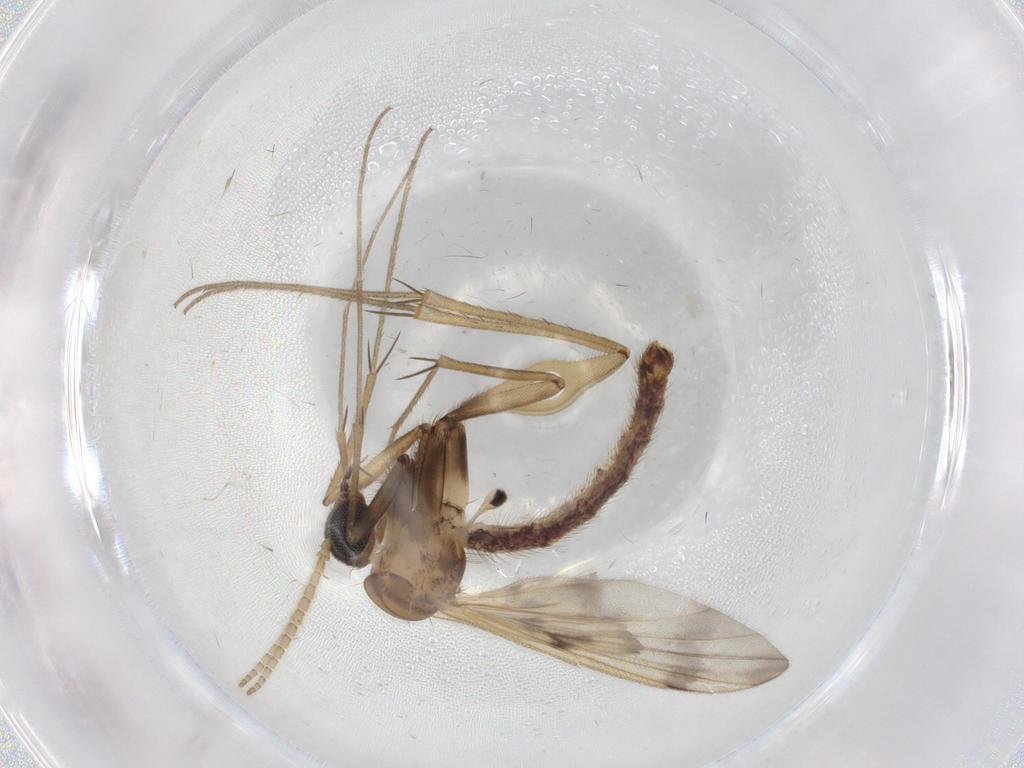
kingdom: Animalia
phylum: Arthropoda
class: Insecta
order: Diptera
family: Empididae
